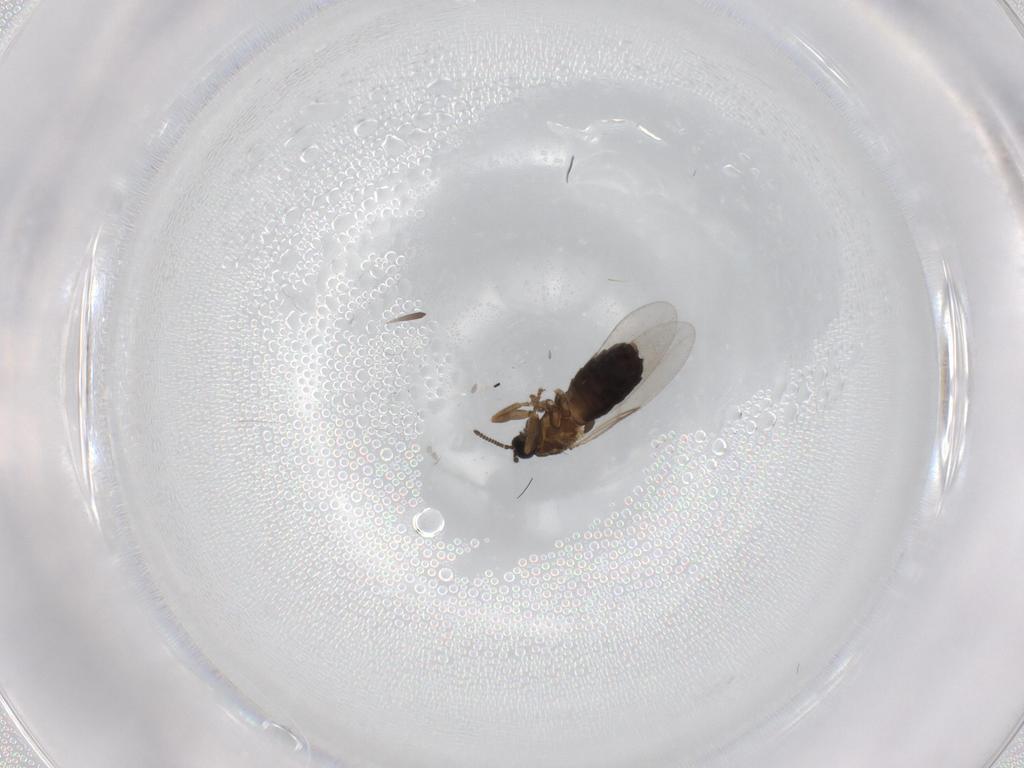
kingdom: Animalia
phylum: Arthropoda
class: Insecta
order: Diptera
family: Scatopsidae
